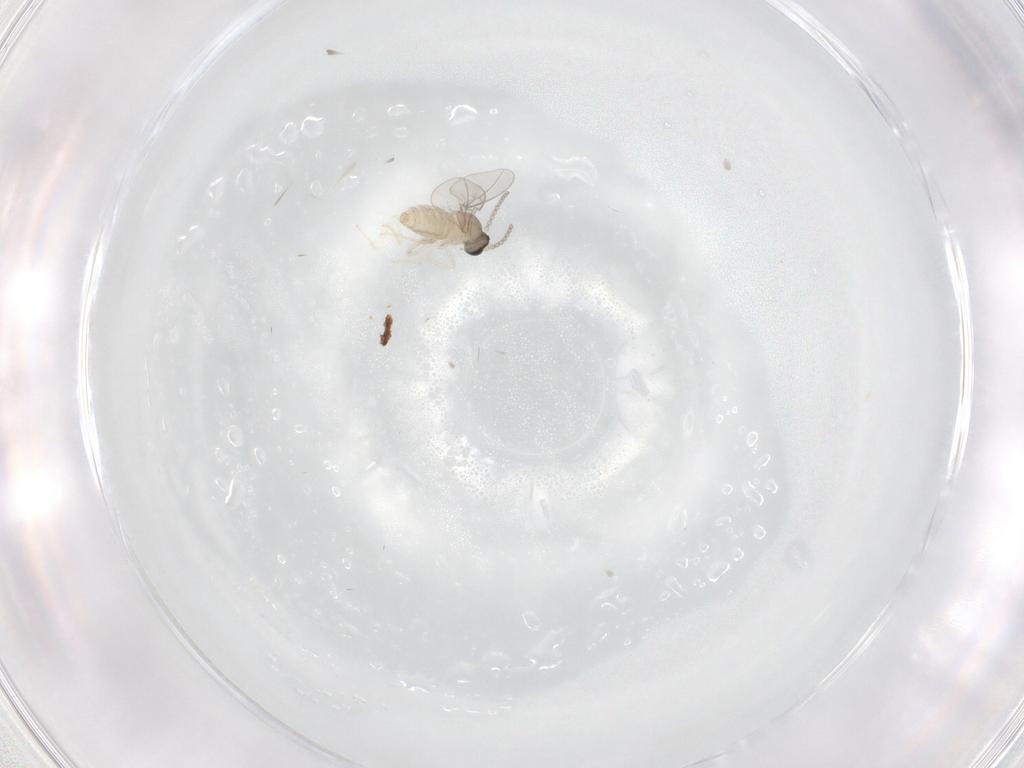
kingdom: Animalia
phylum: Arthropoda
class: Insecta
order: Diptera
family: Cecidomyiidae
